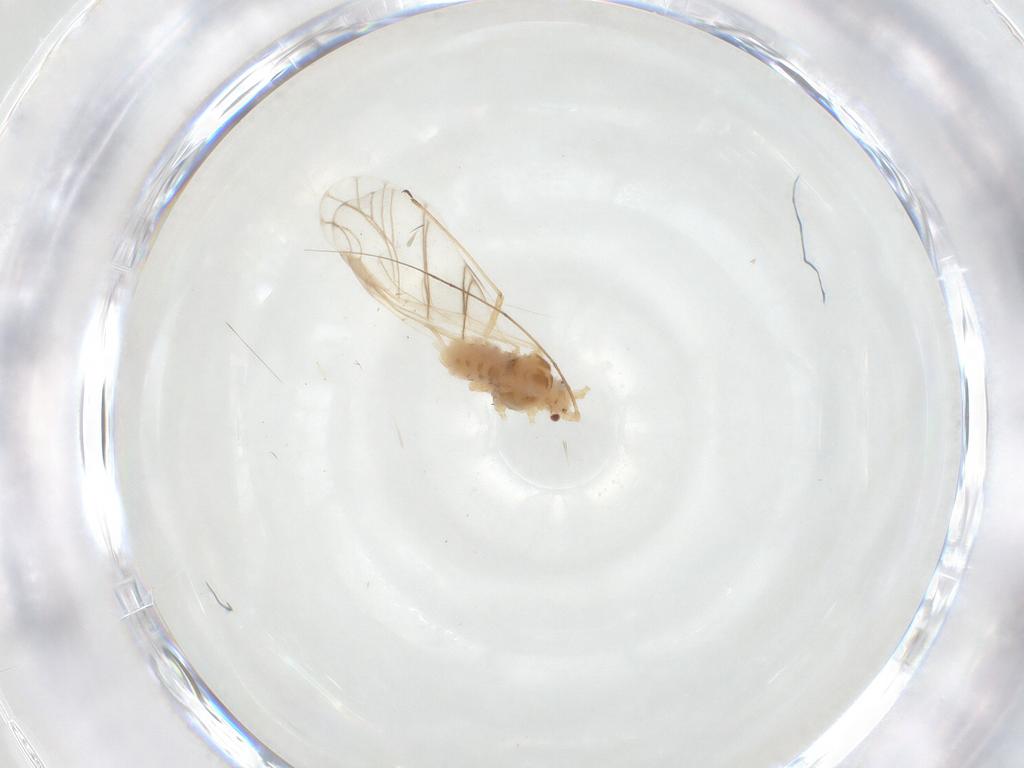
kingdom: Animalia
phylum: Arthropoda
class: Insecta
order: Hemiptera
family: Aphididae
